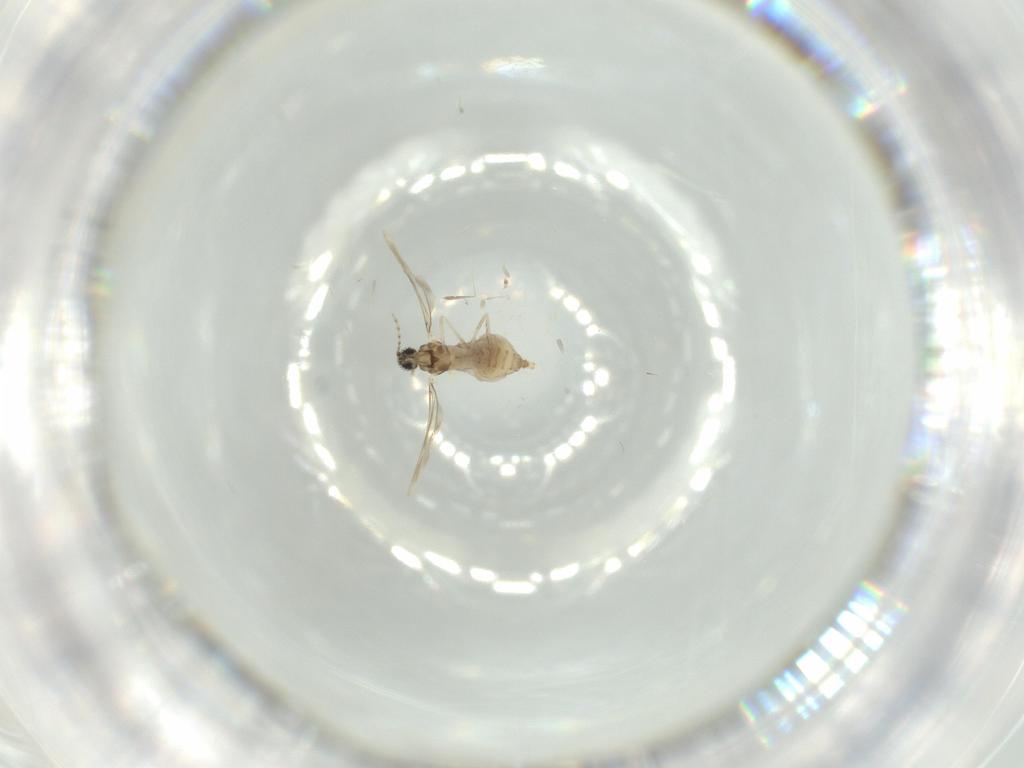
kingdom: Animalia
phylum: Arthropoda
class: Insecta
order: Diptera
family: Cecidomyiidae
